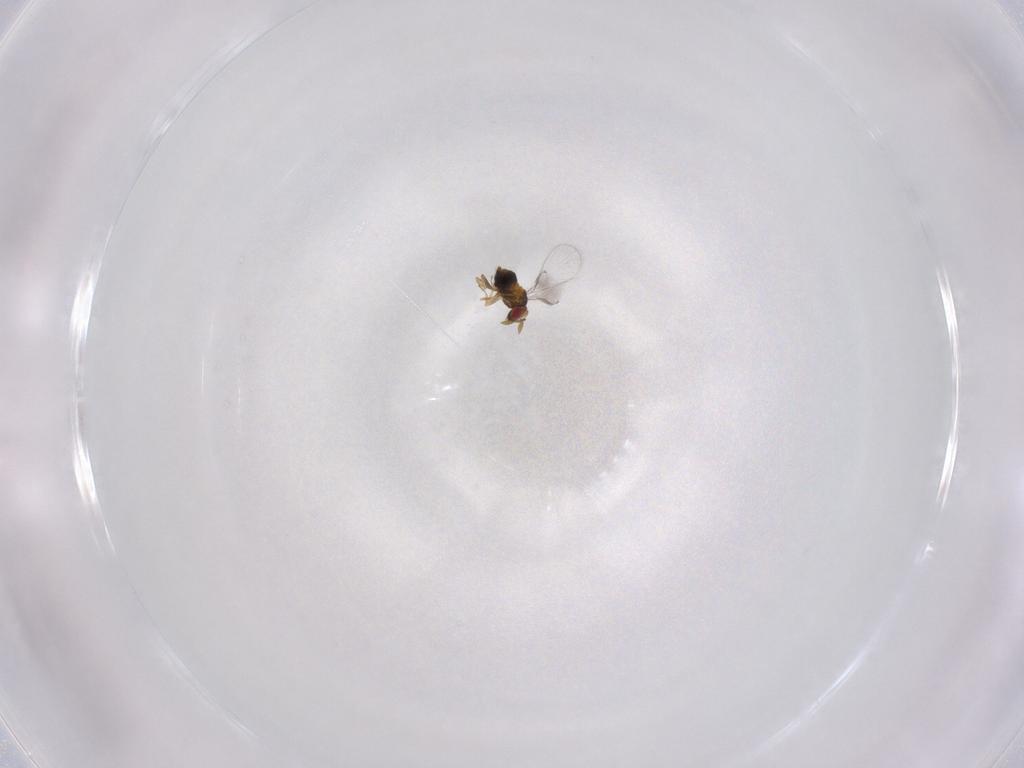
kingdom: Animalia
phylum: Arthropoda
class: Insecta
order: Hymenoptera
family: Trichogrammatidae
